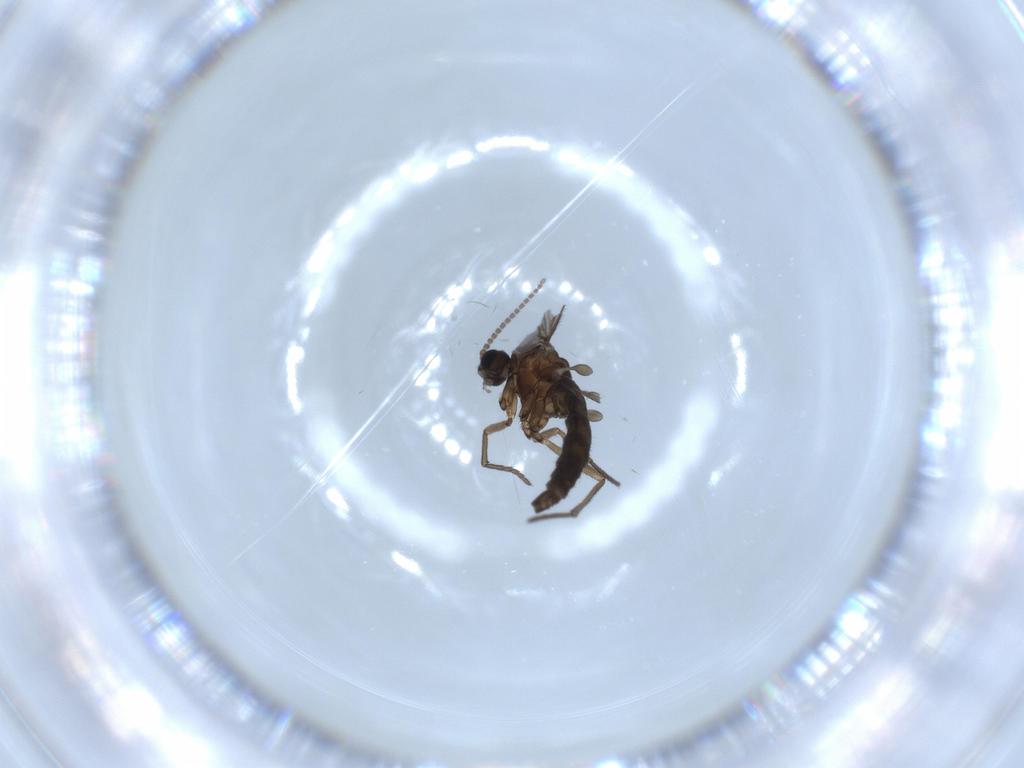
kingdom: Animalia
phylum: Arthropoda
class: Insecta
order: Diptera
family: Sciaridae
